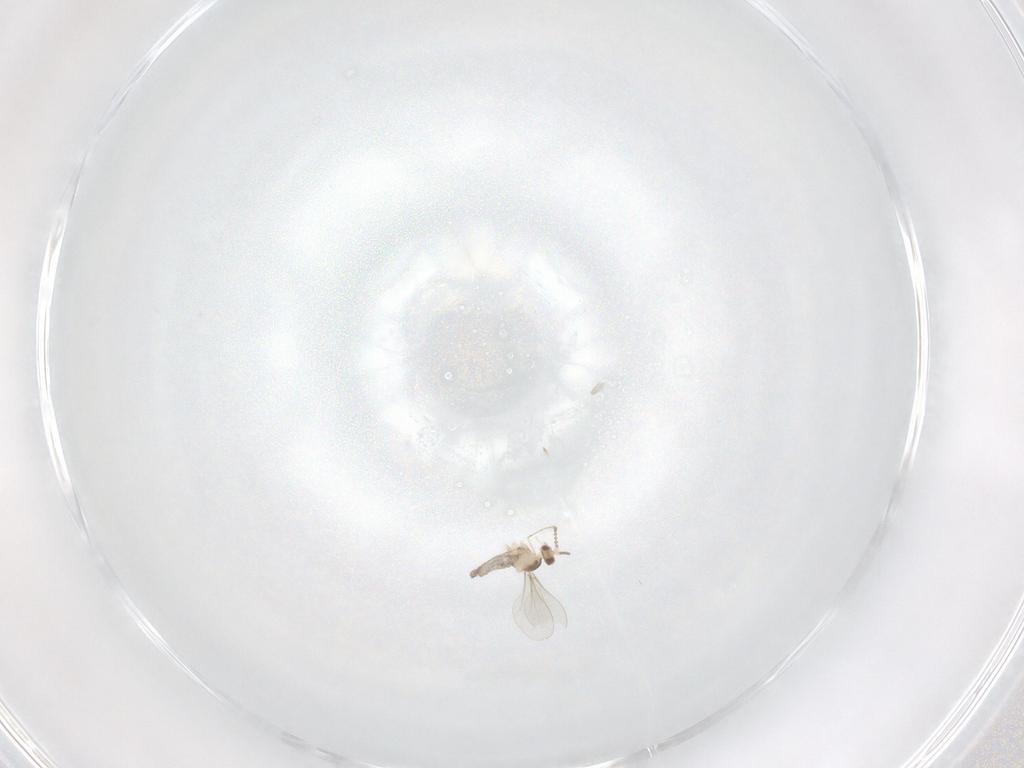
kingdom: Animalia
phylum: Arthropoda
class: Insecta
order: Diptera
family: Cecidomyiidae
